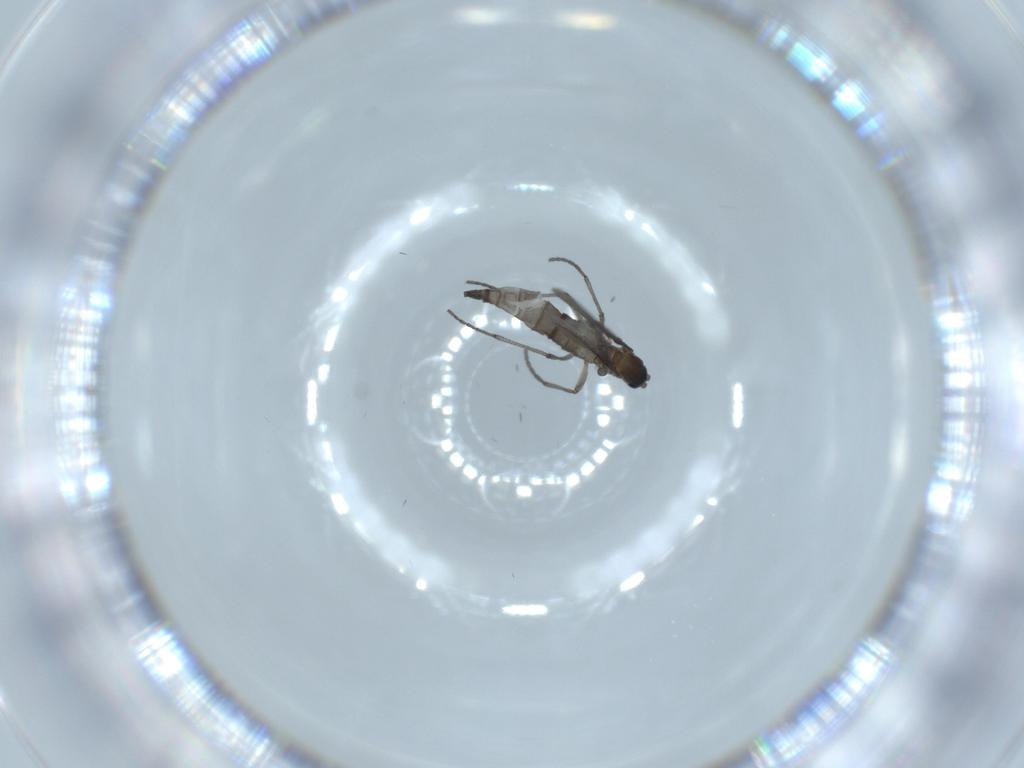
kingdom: Animalia
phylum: Arthropoda
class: Insecta
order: Diptera
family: Sciaridae
